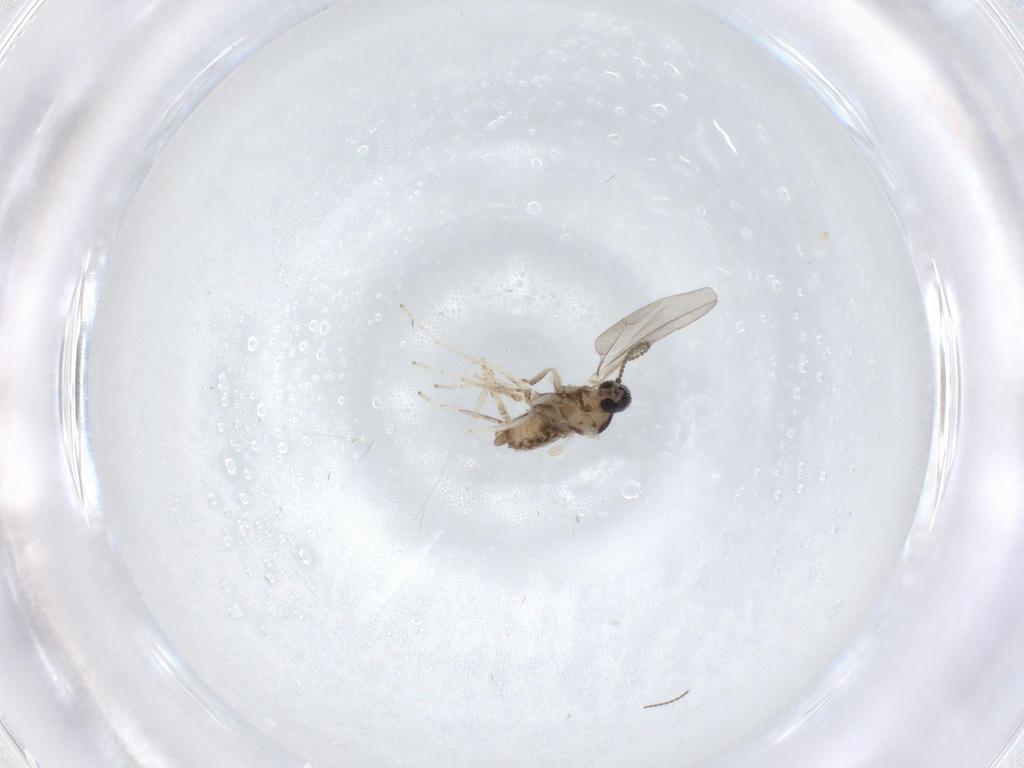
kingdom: Animalia
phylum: Arthropoda
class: Insecta
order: Diptera
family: Cecidomyiidae
